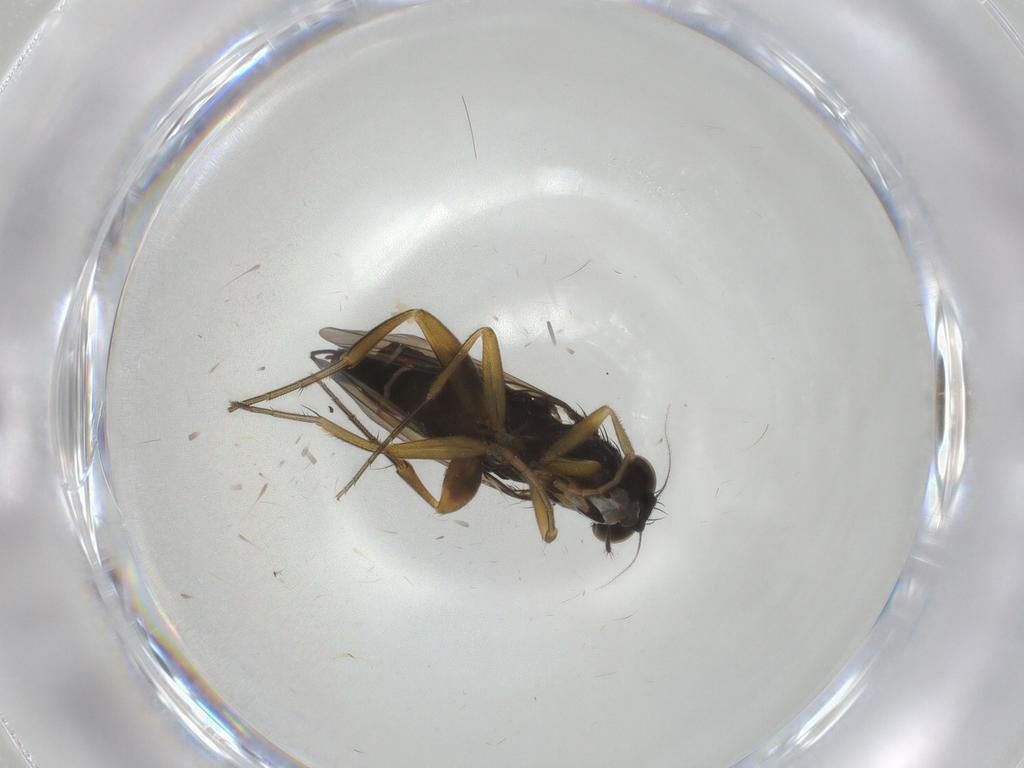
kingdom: Animalia
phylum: Arthropoda
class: Insecta
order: Diptera
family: Mycetophilidae
